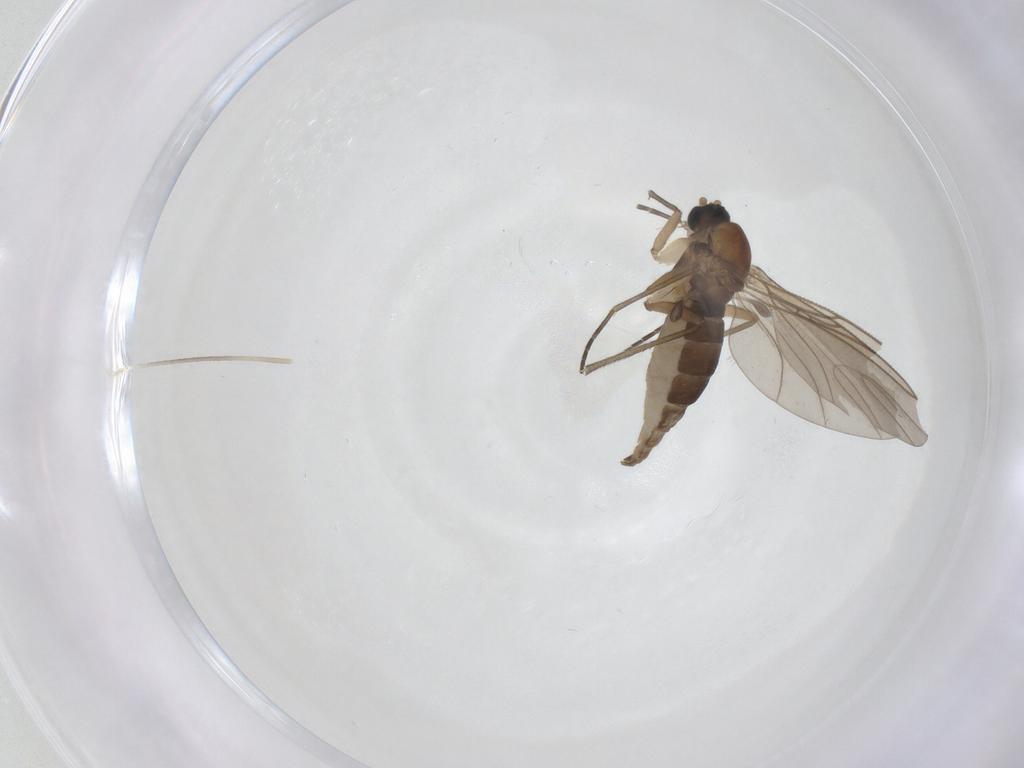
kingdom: Animalia
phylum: Arthropoda
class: Insecta
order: Diptera
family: Sciaridae
